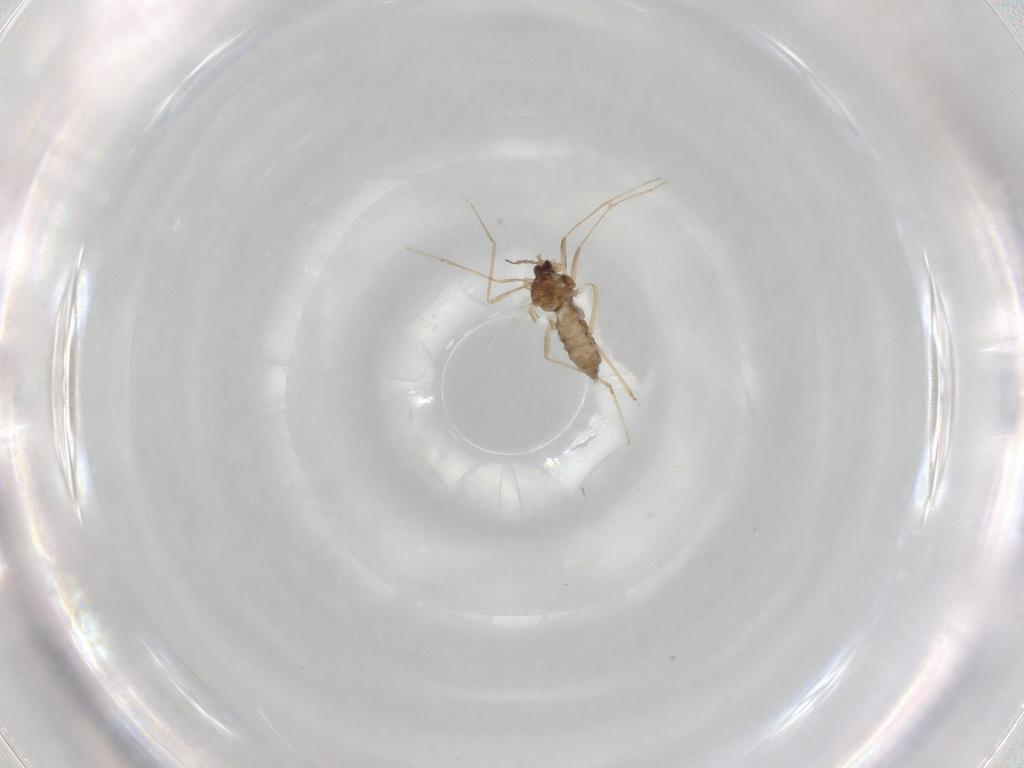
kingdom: Animalia
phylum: Arthropoda
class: Insecta
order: Diptera
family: Cecidomyiidae
